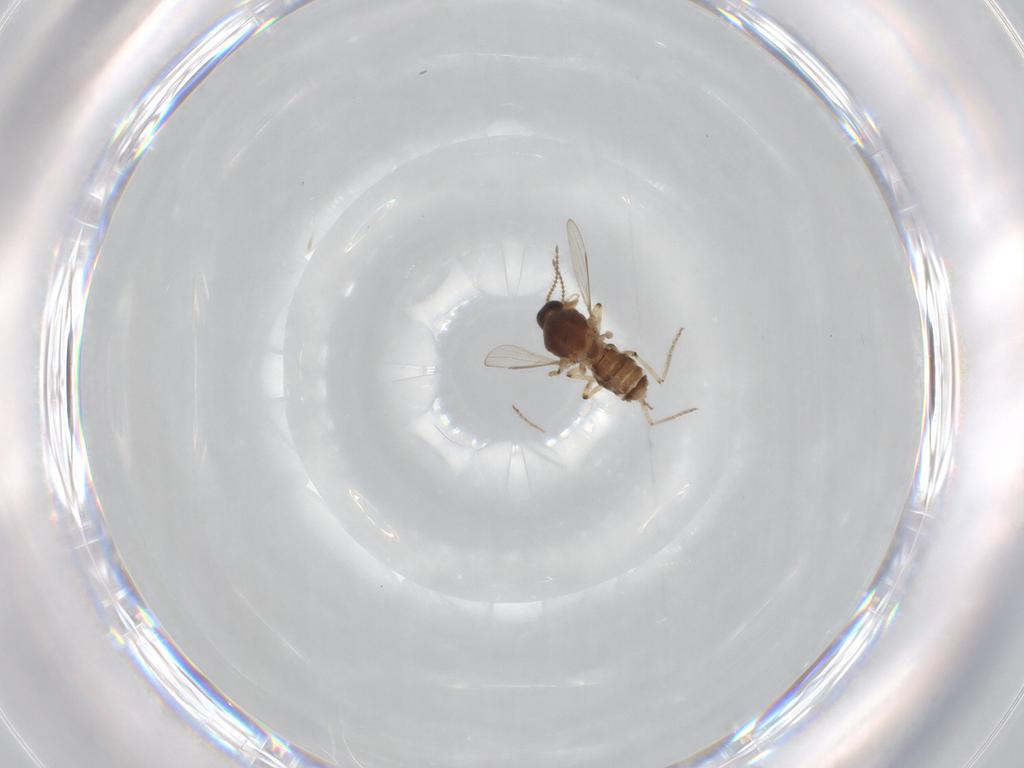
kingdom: Animalia
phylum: Arthropoda
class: Insecta
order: Diptera
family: Ceratopogonidae
